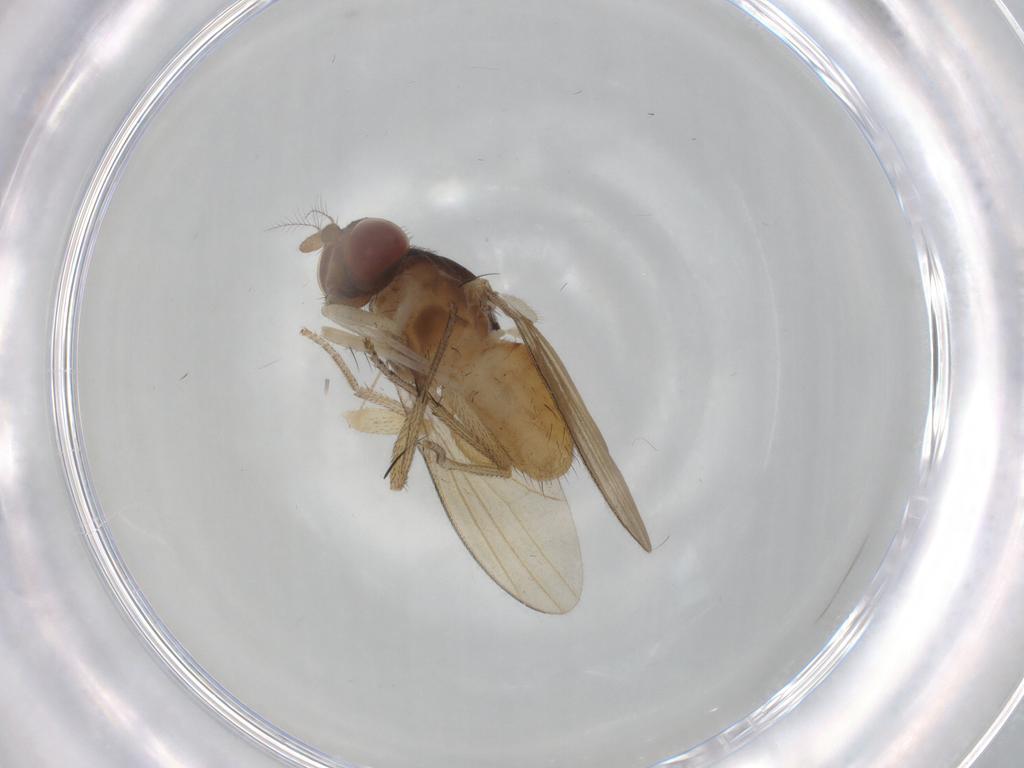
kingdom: Animalia
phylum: Arthropoda
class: Insecta
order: Diptera
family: Lauxaniidae
